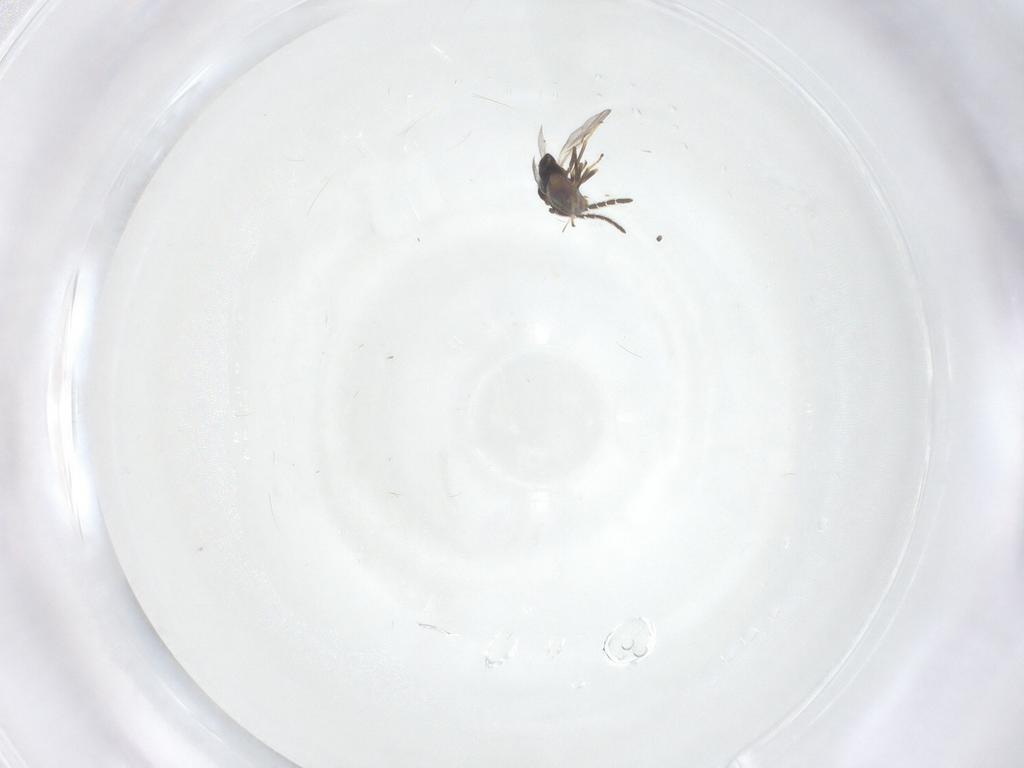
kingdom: Animalia
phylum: Arthropoda
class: Insecta
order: Hymenoptera
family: Encyrtidae
